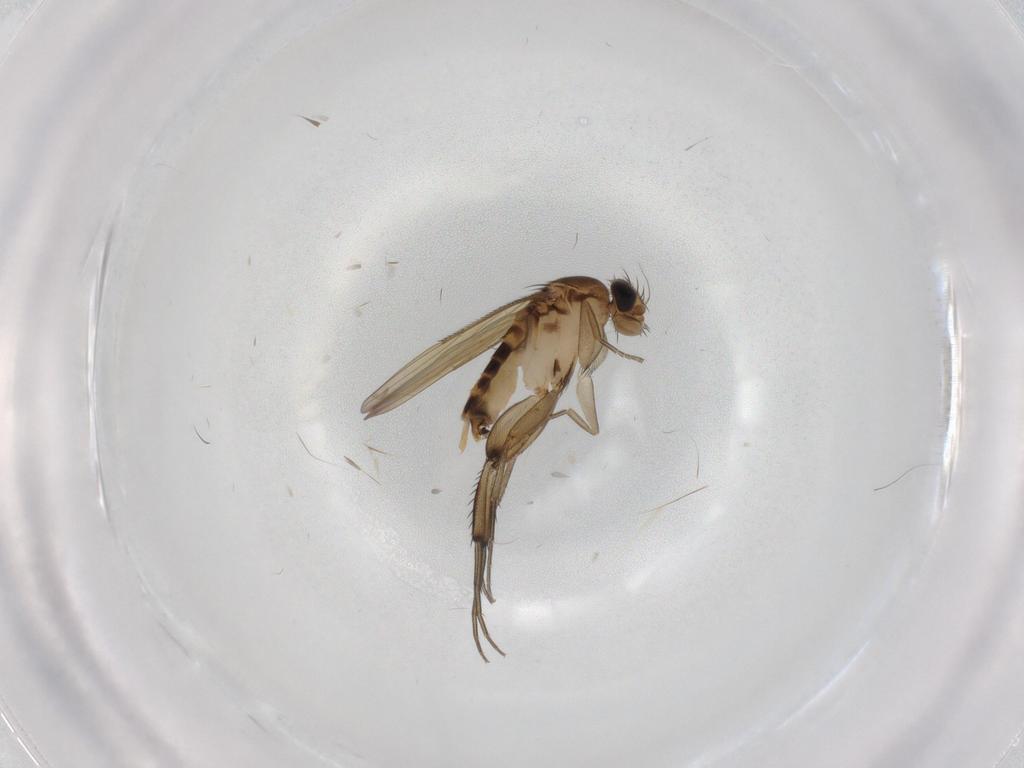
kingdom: Animalia
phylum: Arthropoda
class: Insecta
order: Diptera
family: Phoridae
